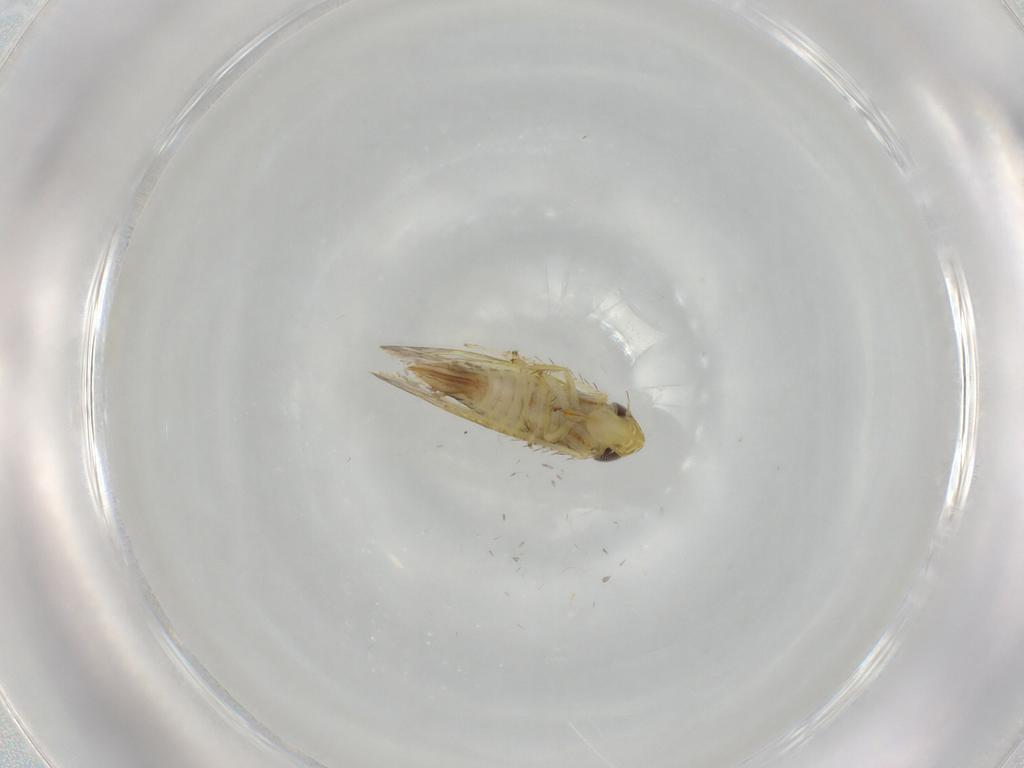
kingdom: Animalia
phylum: Arthropoda
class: Insecta
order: Hemiptera
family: Cicadellidae
